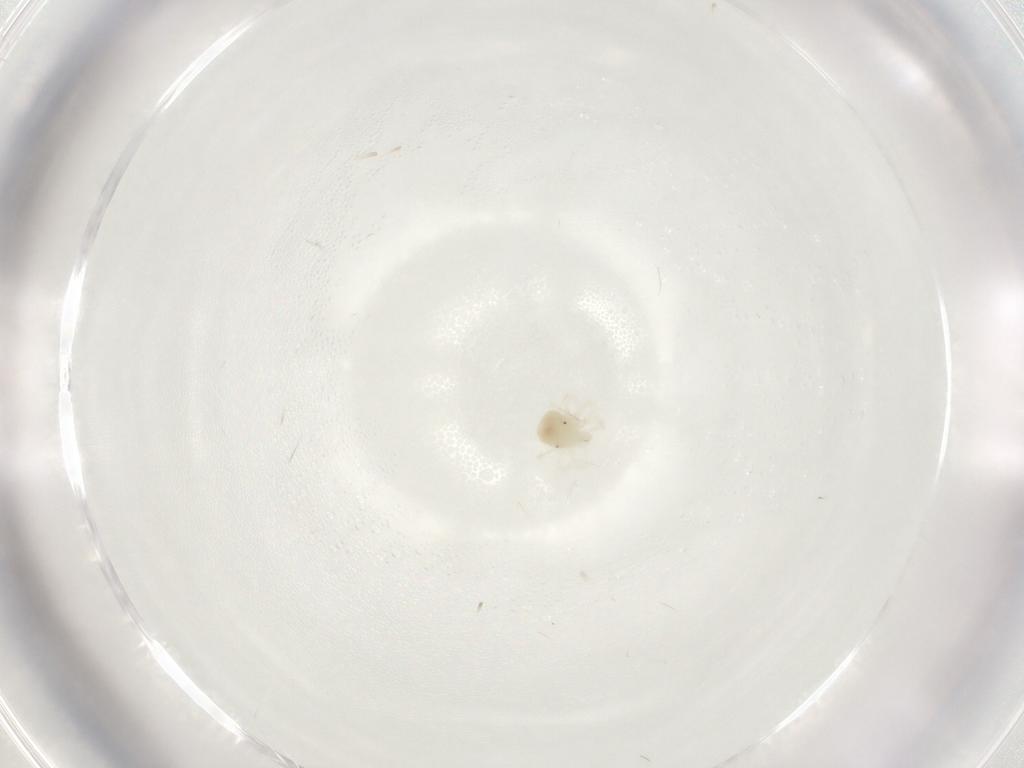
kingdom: Animalia
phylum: Arthropoda
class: Arachnida
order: Trombidiformes
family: Anystidae
